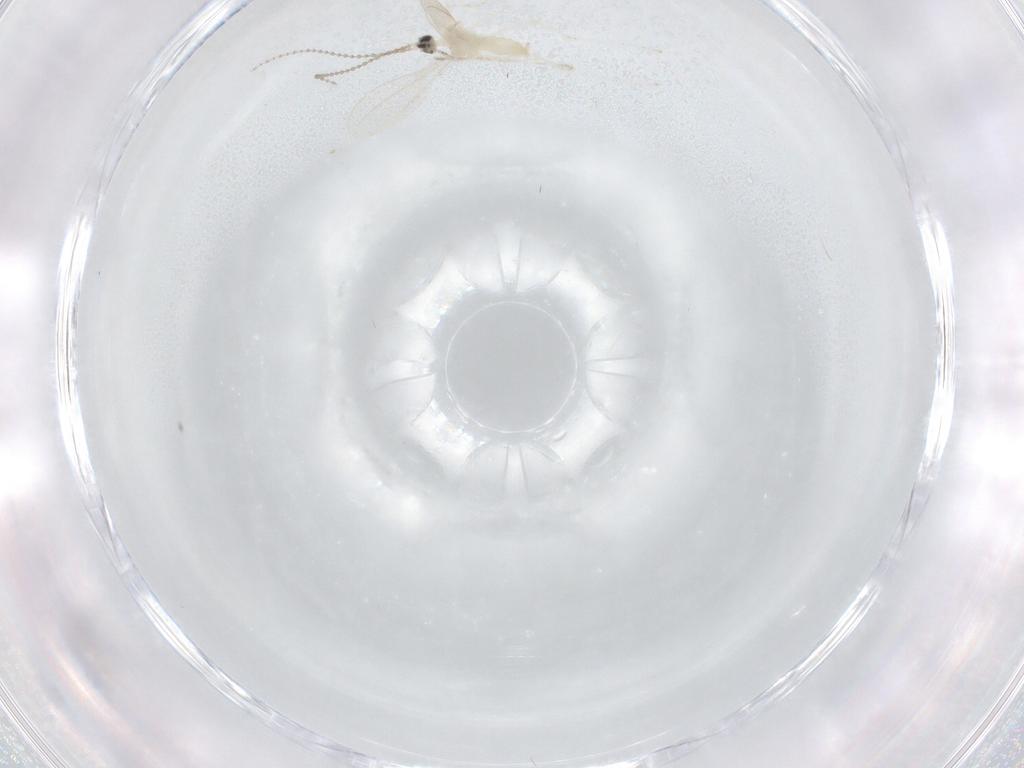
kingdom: Animalia
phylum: Arthropoda
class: Insecta
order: Diptera
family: Cecidomyiidae
